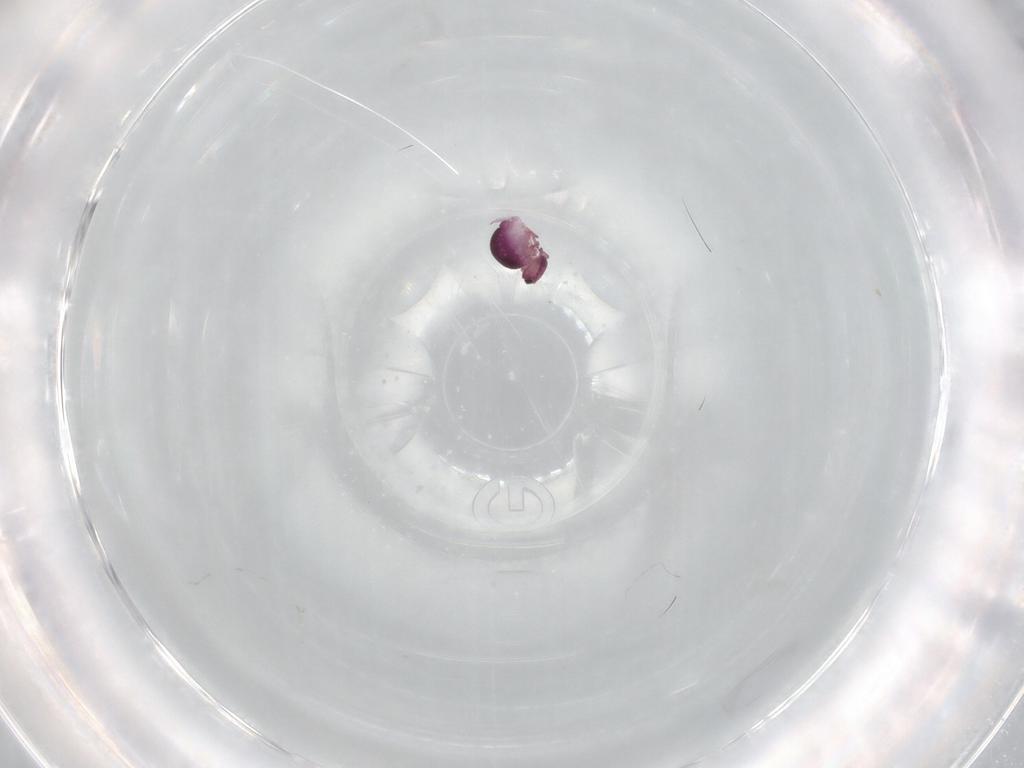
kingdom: Animalia
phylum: Arthropoda
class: Collembola
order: Symphypleona
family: Sminthurididae
